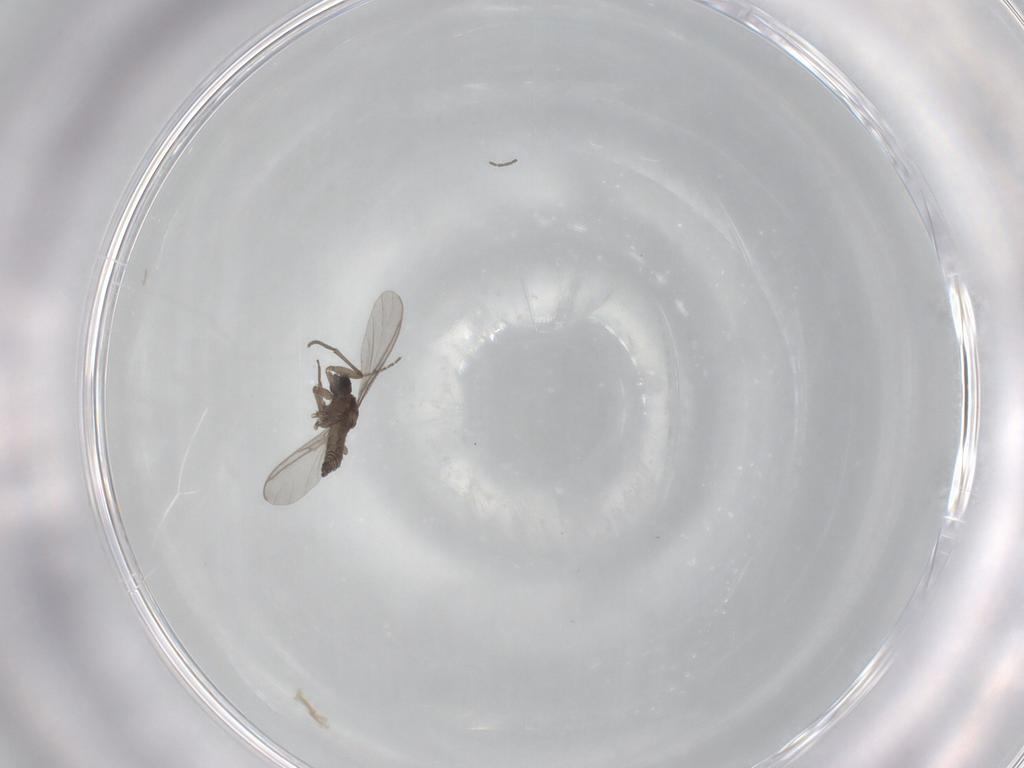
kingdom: Animalia
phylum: Arthropoda
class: Insecta
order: Diptera
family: Sciaridae
